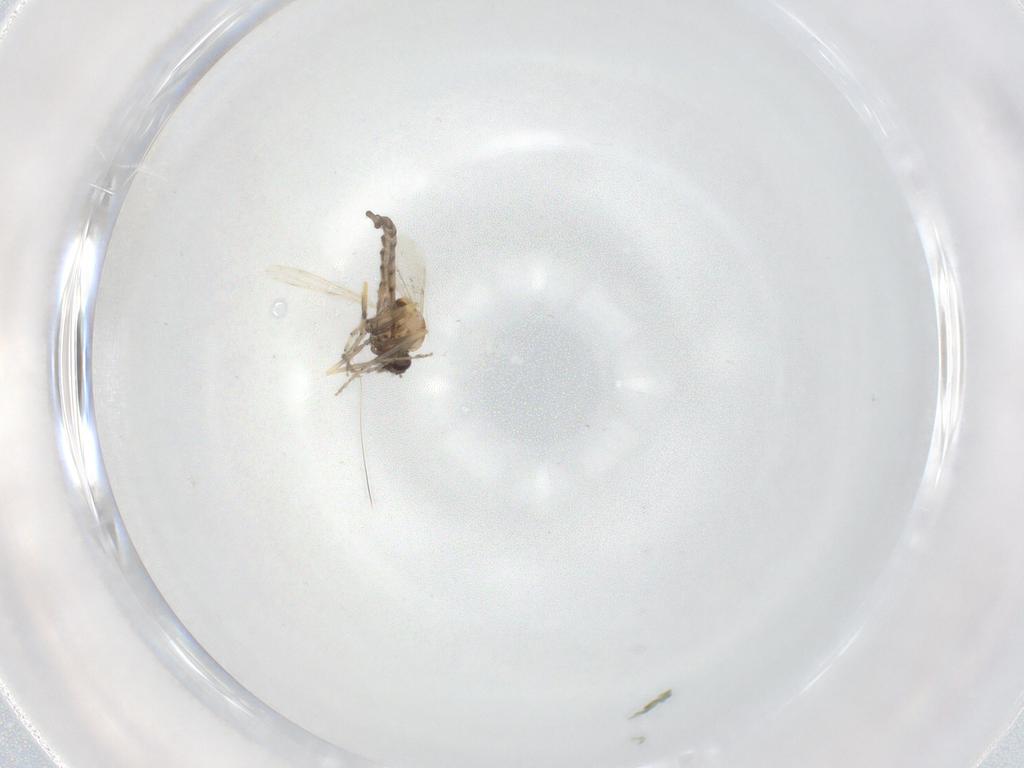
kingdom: Animalia
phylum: Arthropoda
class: Insecta
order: Diptera
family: Ceratopogonidae
